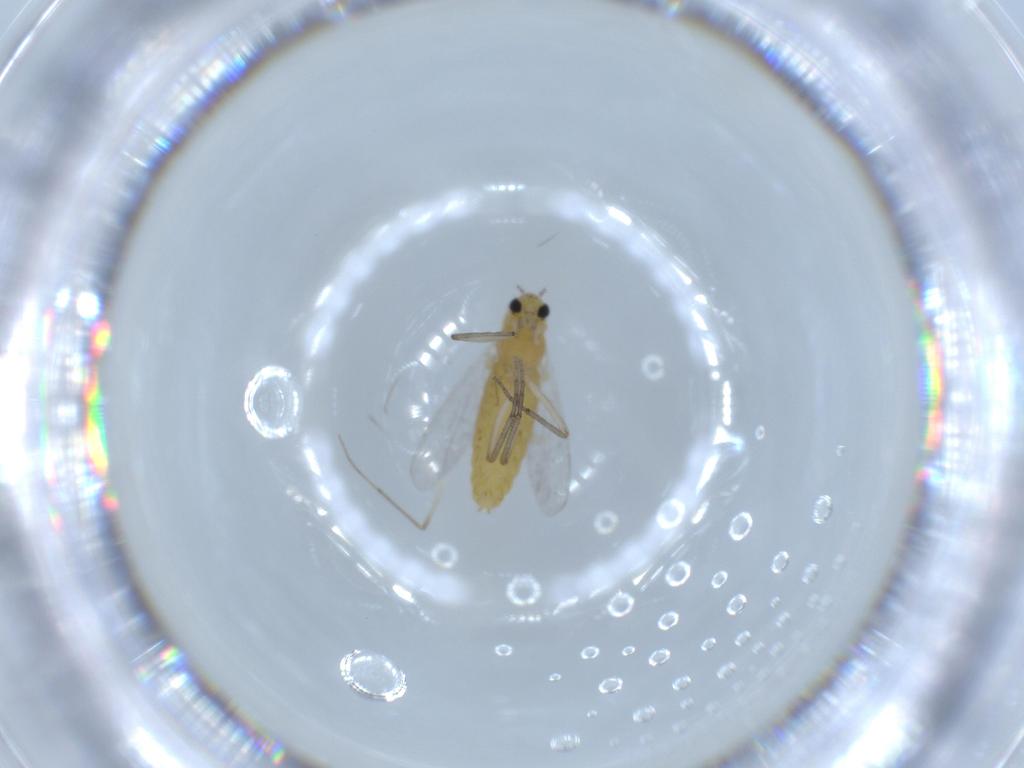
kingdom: Animalia
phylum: Arthropoda
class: Insecta
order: Diptera
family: Chironomidae
